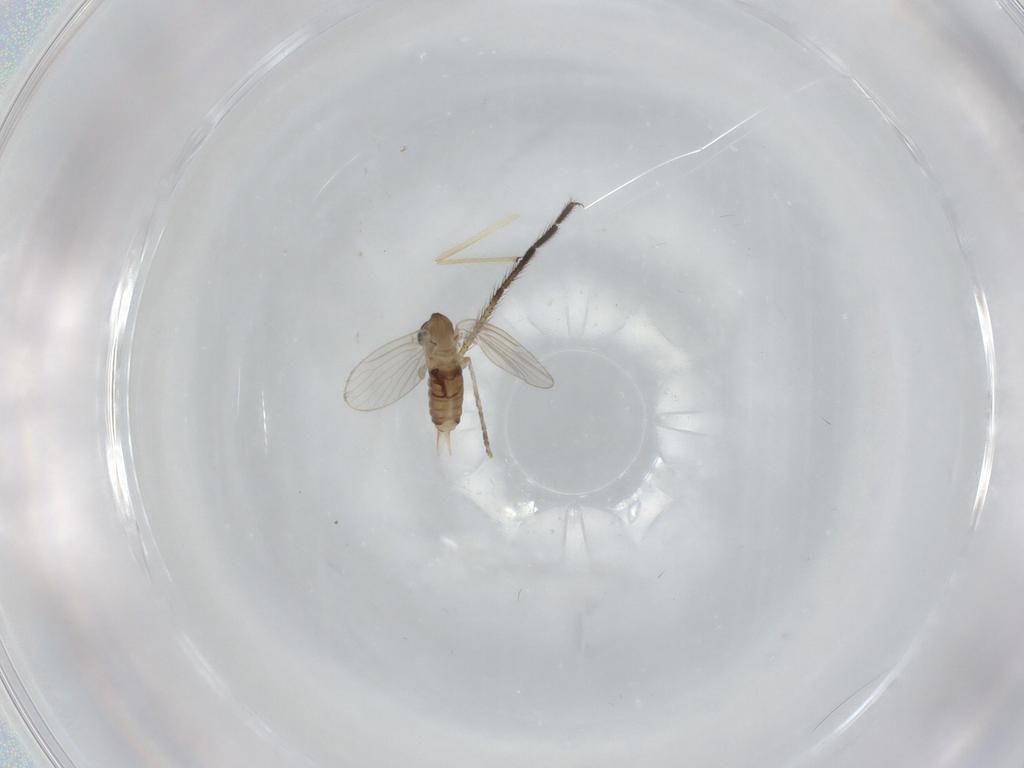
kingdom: Animalia
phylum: Arthropoda
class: Insecta
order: Diptera
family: Psychodidae
